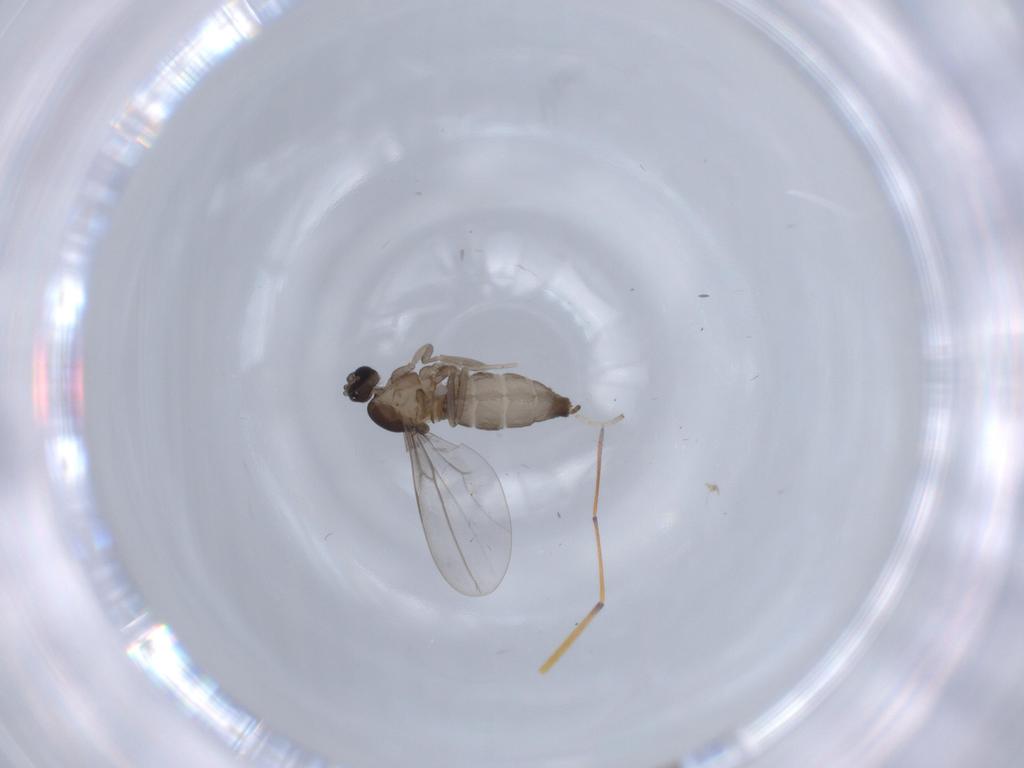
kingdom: Animalia
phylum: Arthropoda
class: Insecta
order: Diptera
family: Cecidomyiidae
